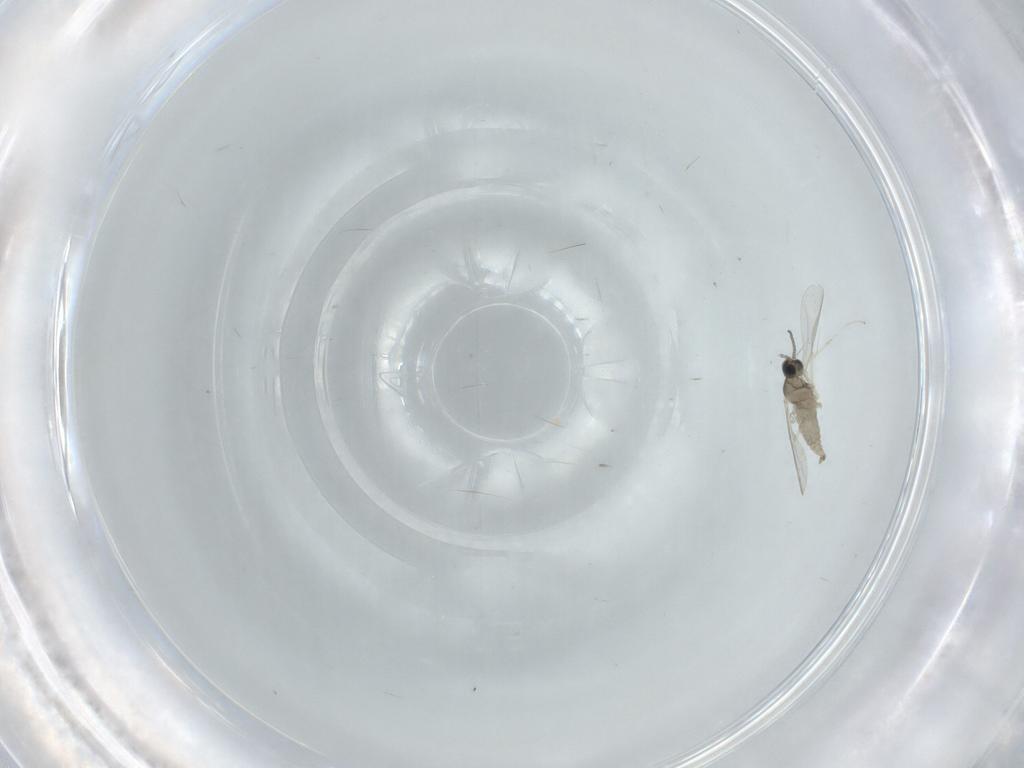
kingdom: Animalia
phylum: Arthropoda
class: Insecta
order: Diptera
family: Cecidomyiidae
